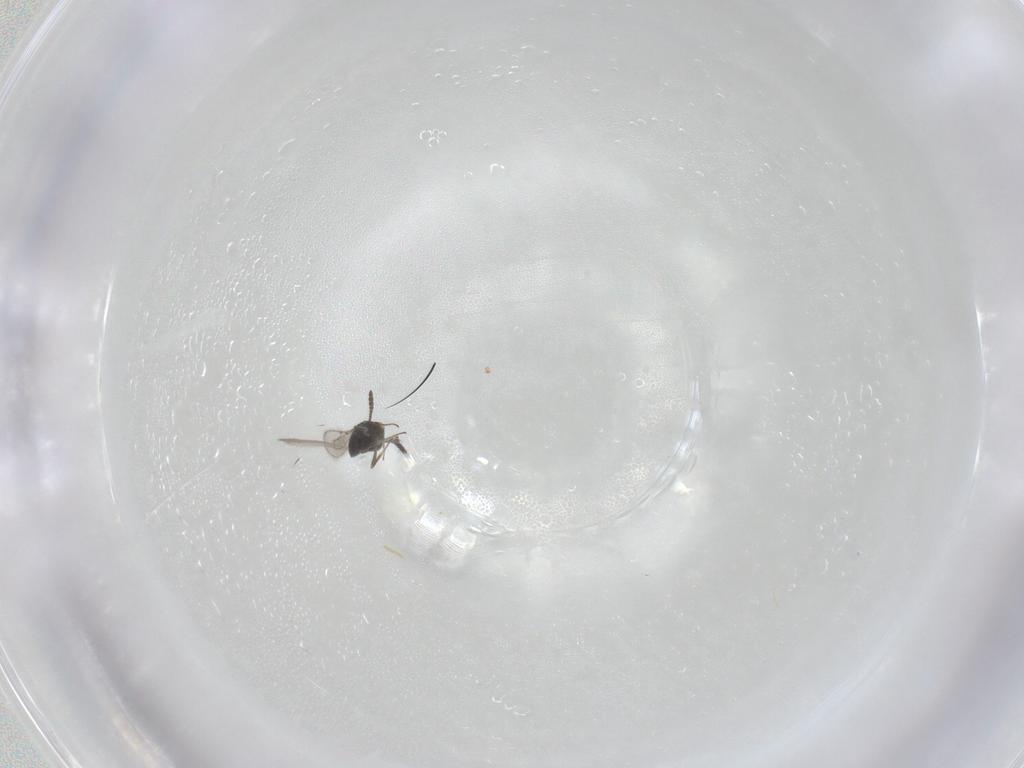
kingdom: Animalia
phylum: Arthropoda
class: Insecta
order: Hymenoptera
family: Scelionidae
